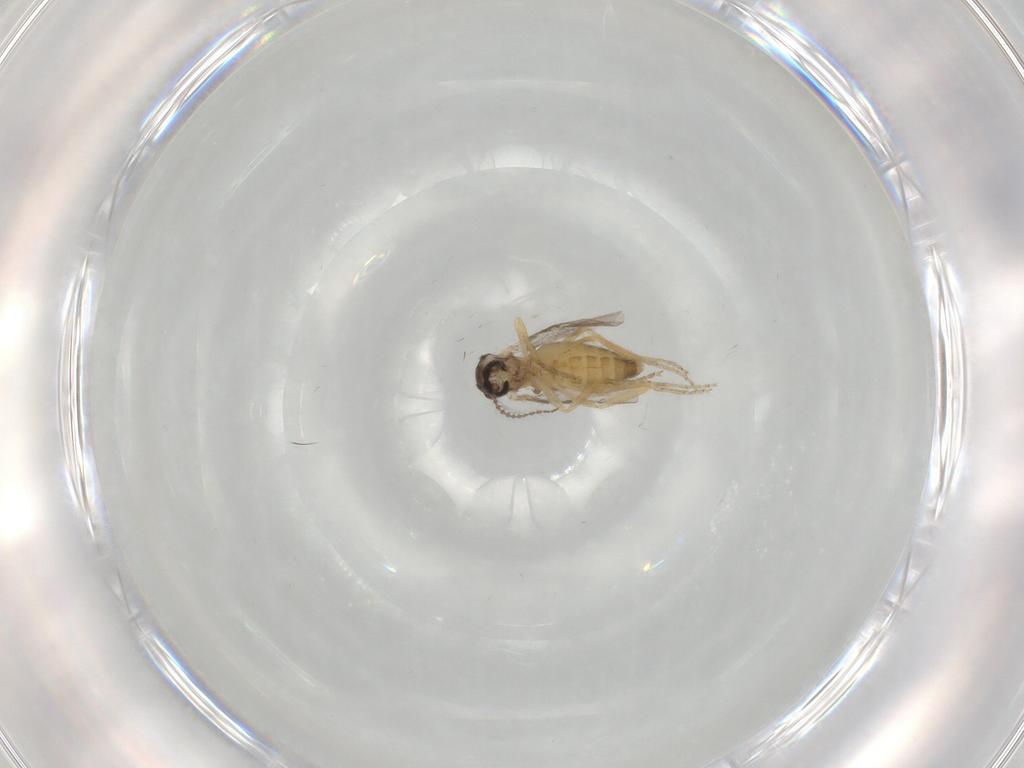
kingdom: Animalia
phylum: Arthropoda
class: Insecta
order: Diptera
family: Ceratopogonidae
